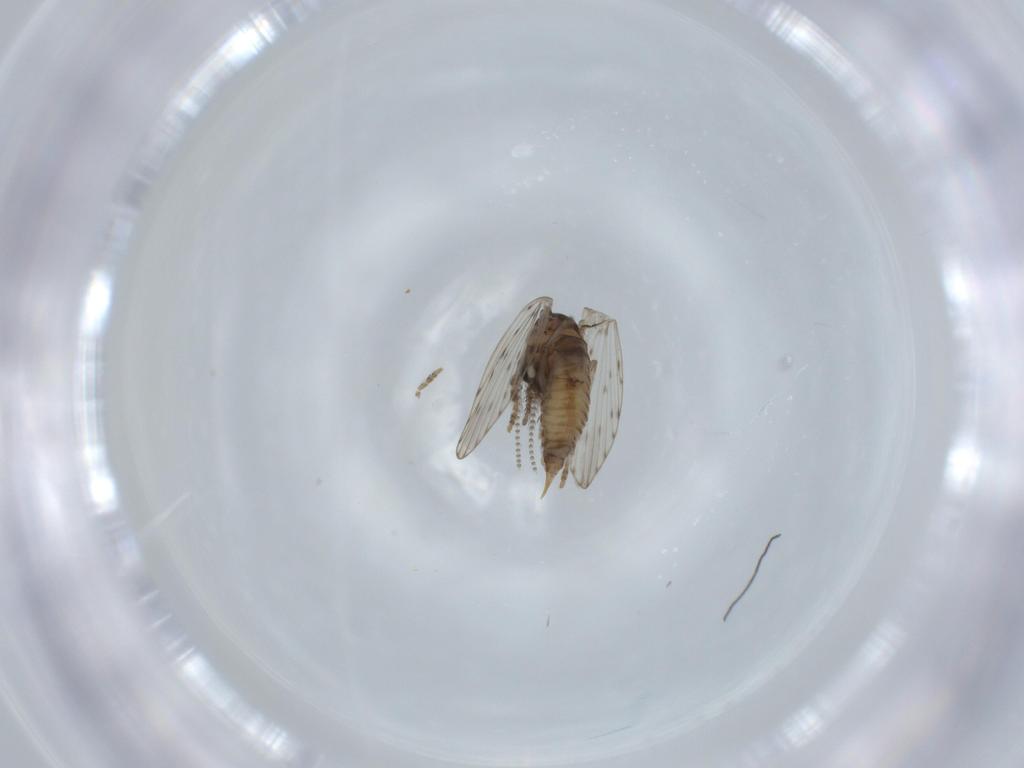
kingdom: Animalia
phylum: Arthropoda
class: Insecta
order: Diptera
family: Psychodidae
